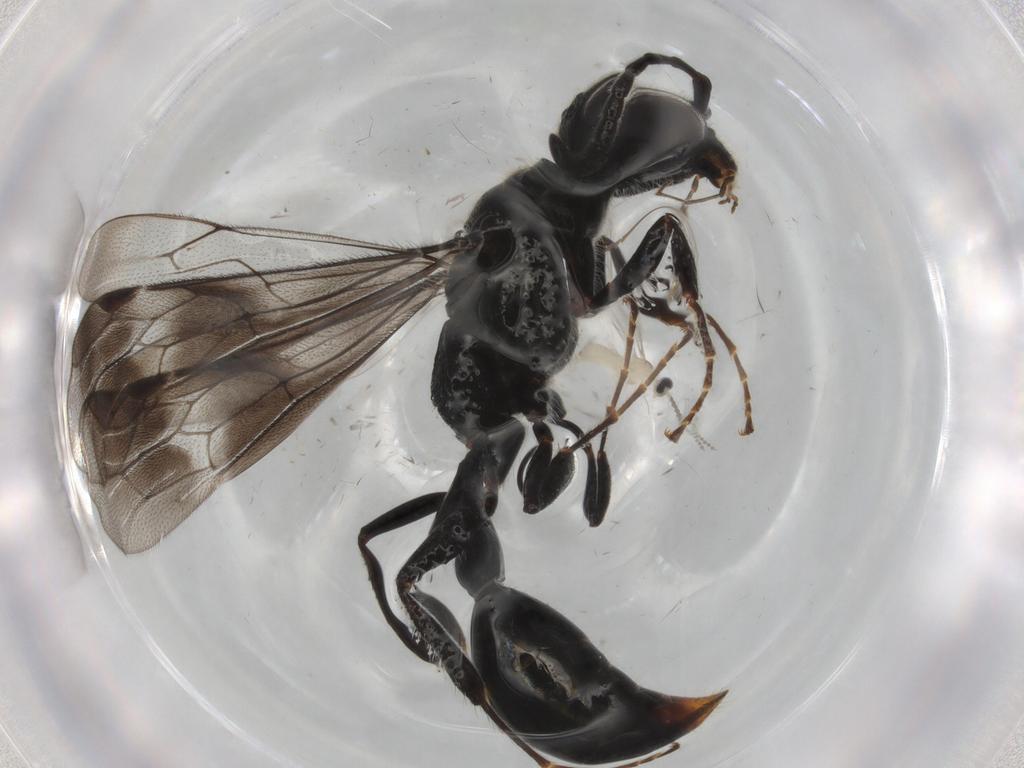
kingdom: Animalia
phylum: Arthropoda
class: Insecta
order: Hymenoptera
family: Thynnidae
